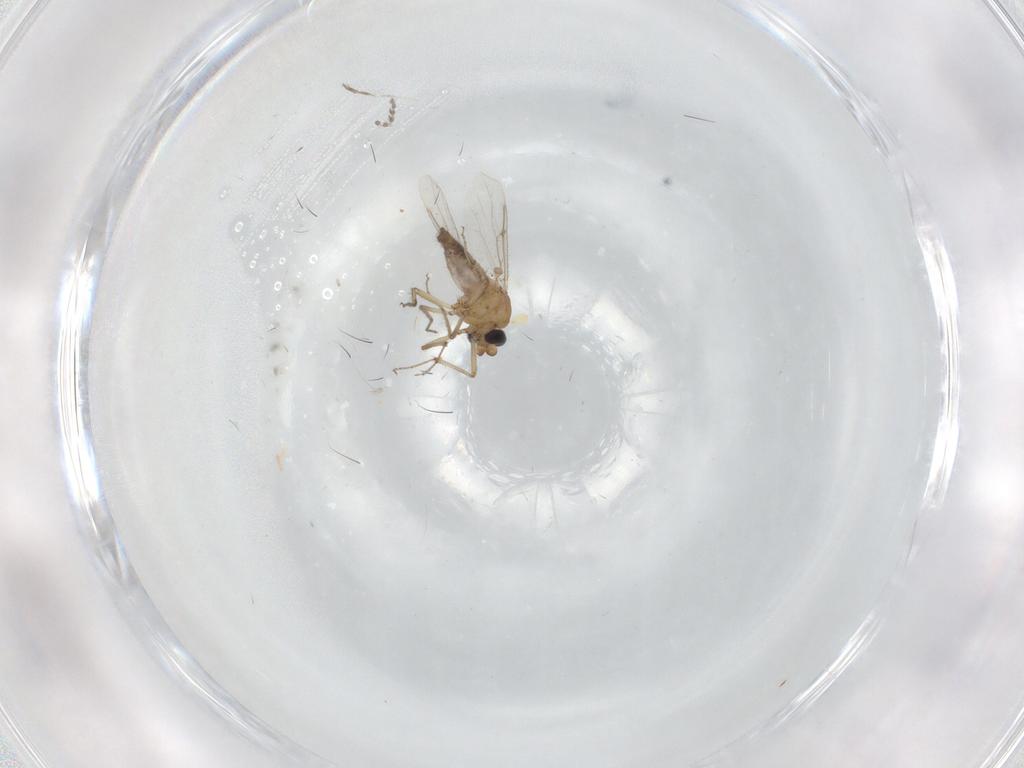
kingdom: Animalia
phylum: Arthropoda
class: Insecta
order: Diptera
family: Psychodidae
